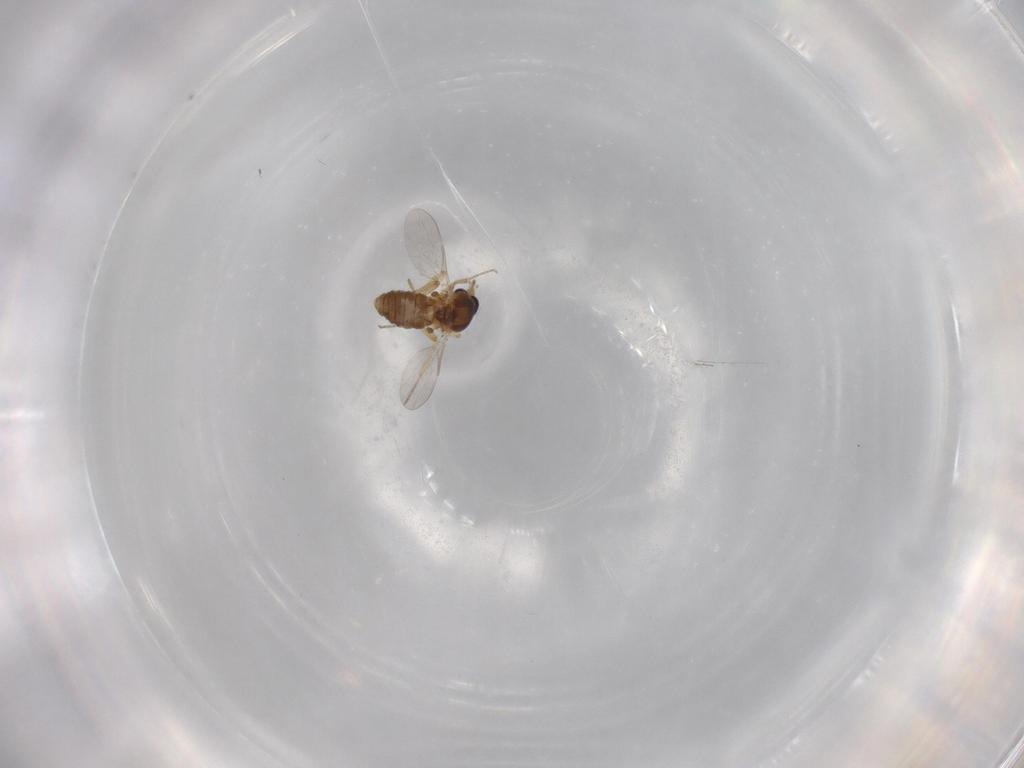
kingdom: Animalia
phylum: Arthropoda
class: Insecta
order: Diptera
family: Ceratopogonidae
